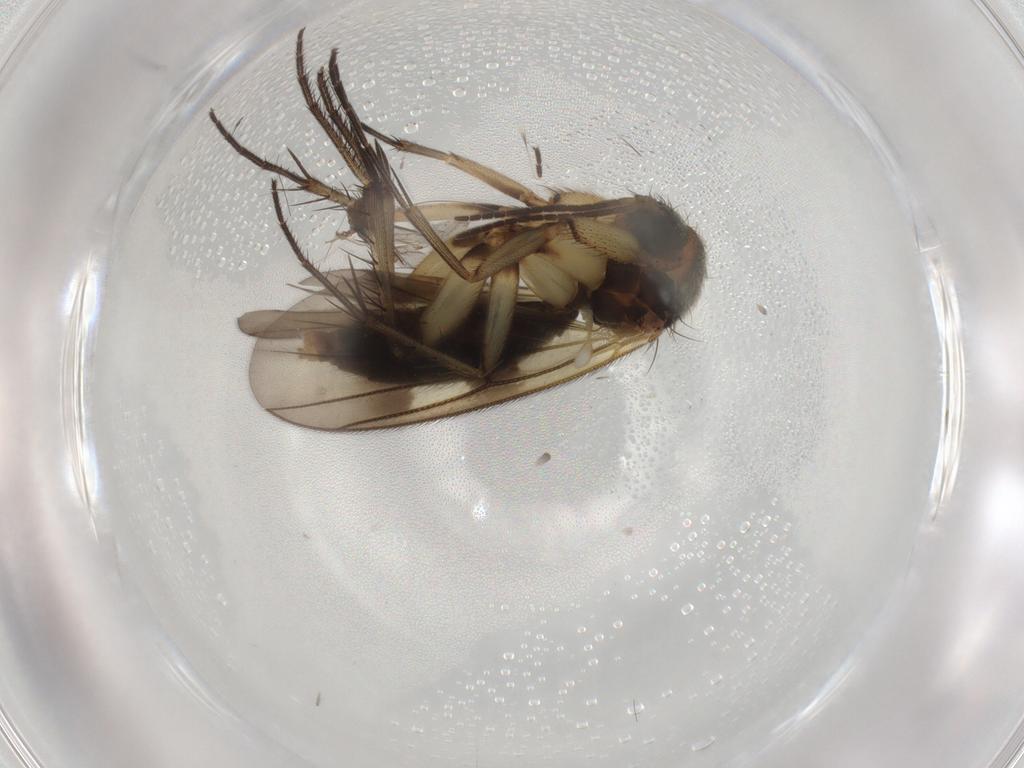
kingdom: Animalia
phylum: Arthropoda
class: Insecta
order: Diptera
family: Mycetophilidae
